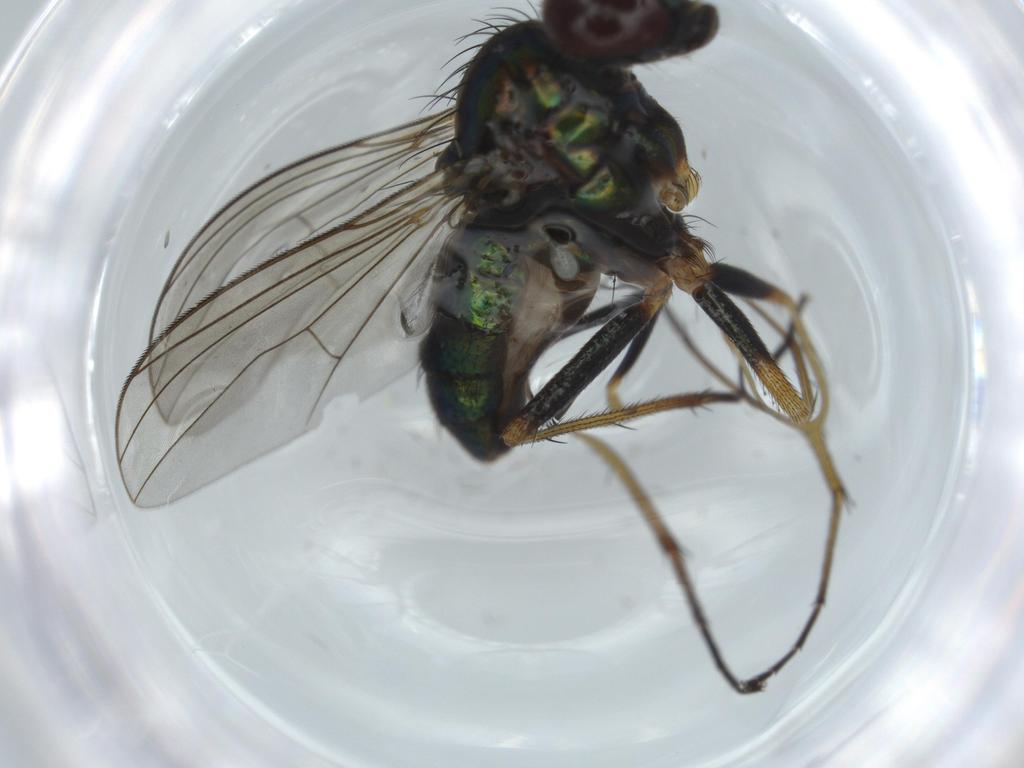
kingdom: Animalia
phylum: Arthropoda
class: Insecta
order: Diptera
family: Dolichopodidae
